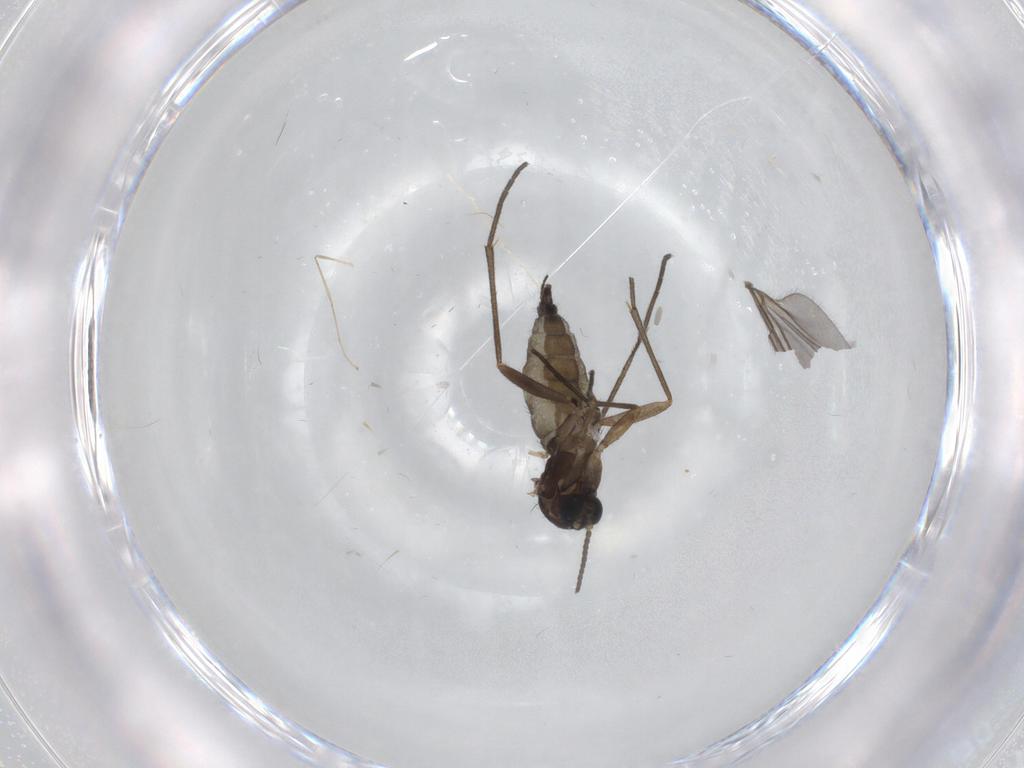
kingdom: Animalia
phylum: Arthropoda
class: Insecta
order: Diptera
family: Sciaridae
